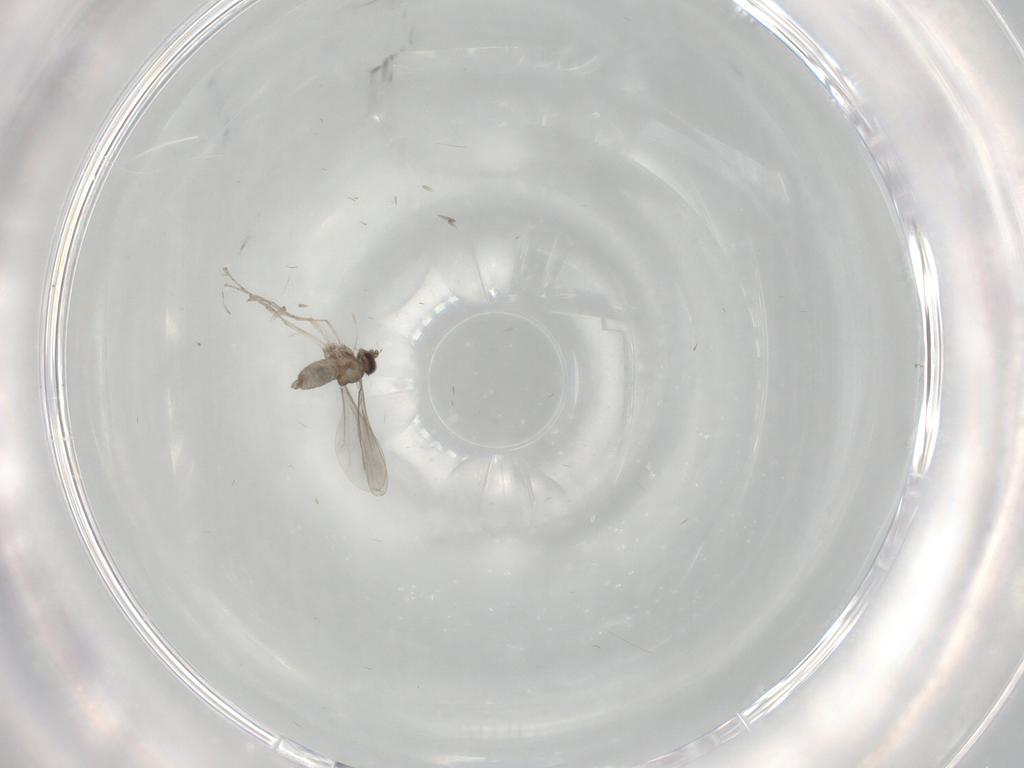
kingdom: Animalia
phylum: Arthropoda
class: Insecta
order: Diptera
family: Cecidomyiidae
